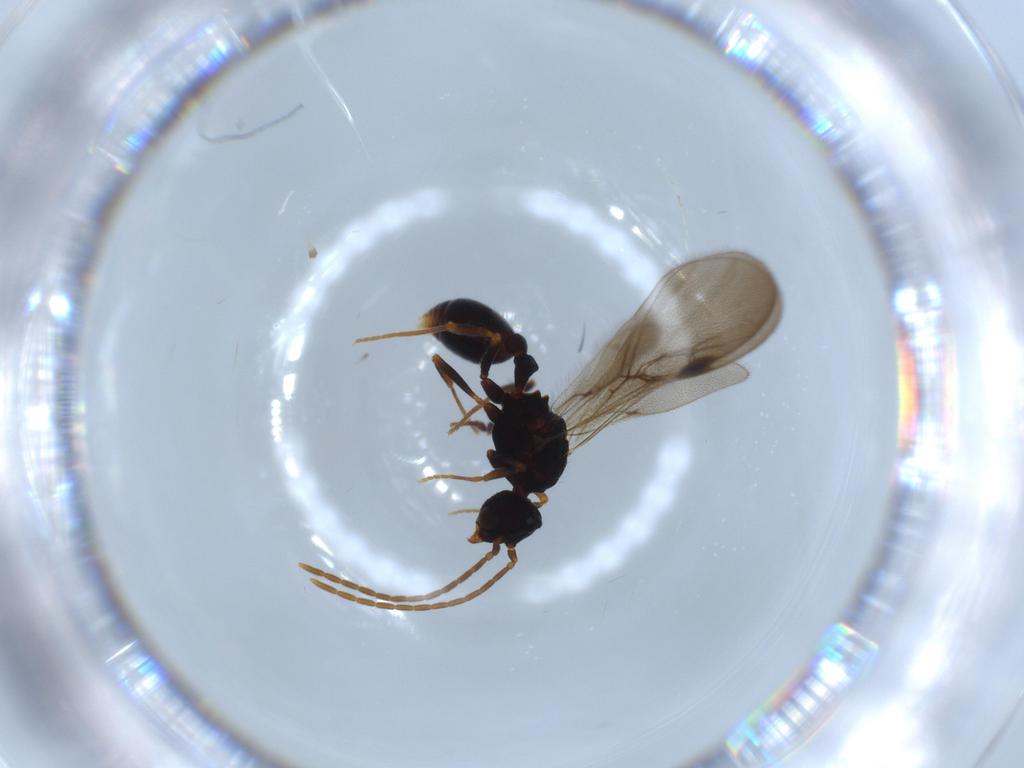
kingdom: Animalia
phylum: Arthropoda
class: Insecta
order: Hymenoptera
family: Formicidae
